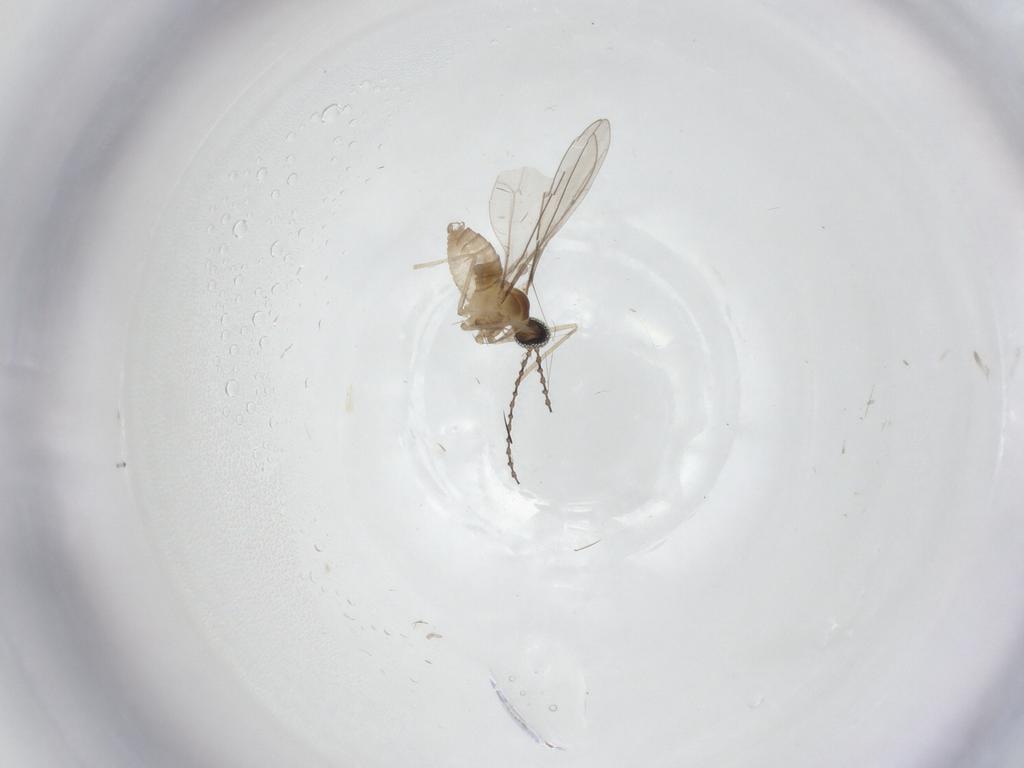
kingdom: Animalia
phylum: Arthropoda
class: Insecta
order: Diptera
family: Cecidomyiidae
